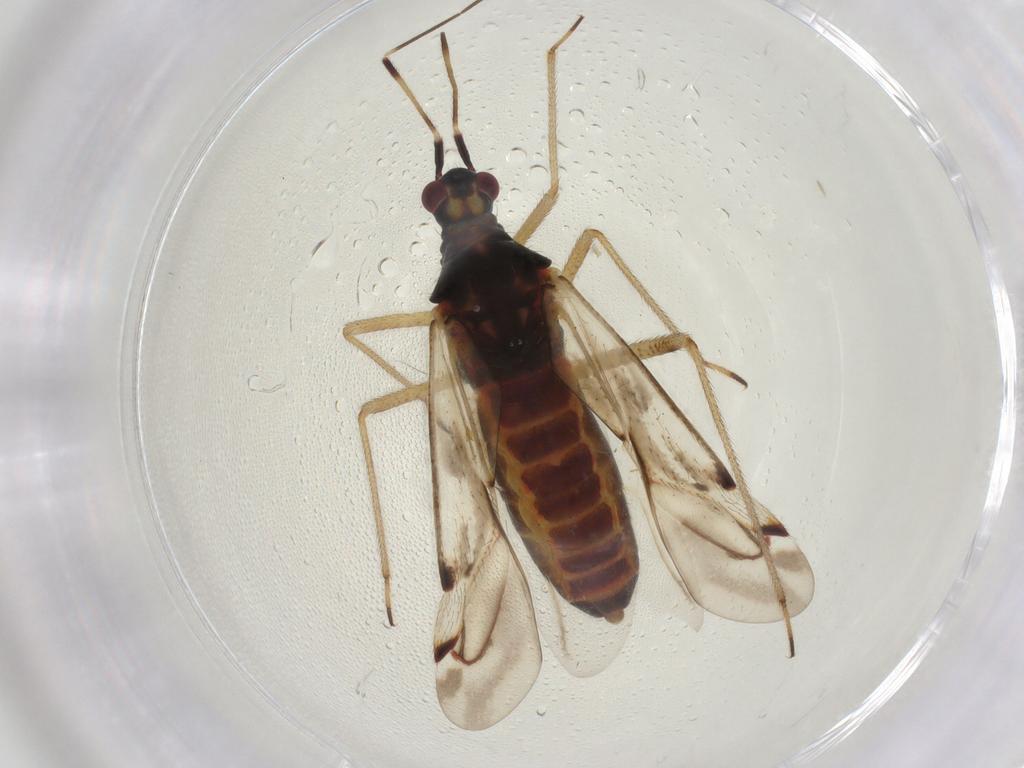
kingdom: Animalia
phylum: Arthropoda
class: Insecta
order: Hemiptera
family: Miridae
